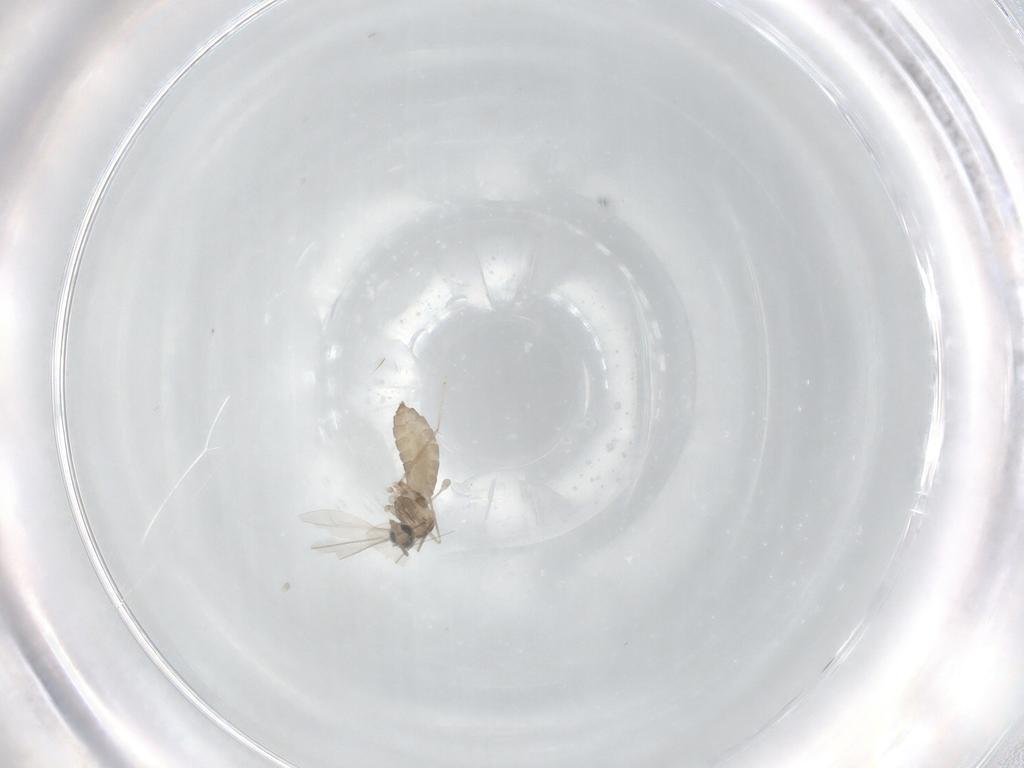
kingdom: Animalia
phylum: Arthropoda
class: Insecta
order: Diptera
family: Cecidomyiidae
